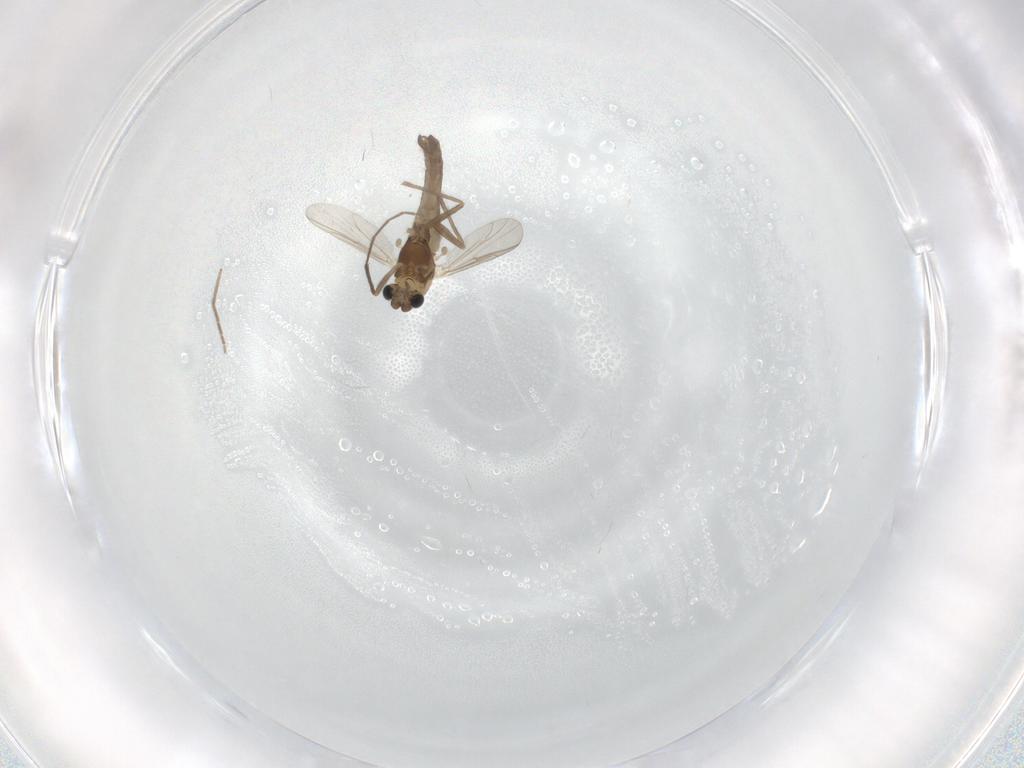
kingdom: Animalia
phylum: Arthropoda
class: Insecta
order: Diptera
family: Chironomidae
